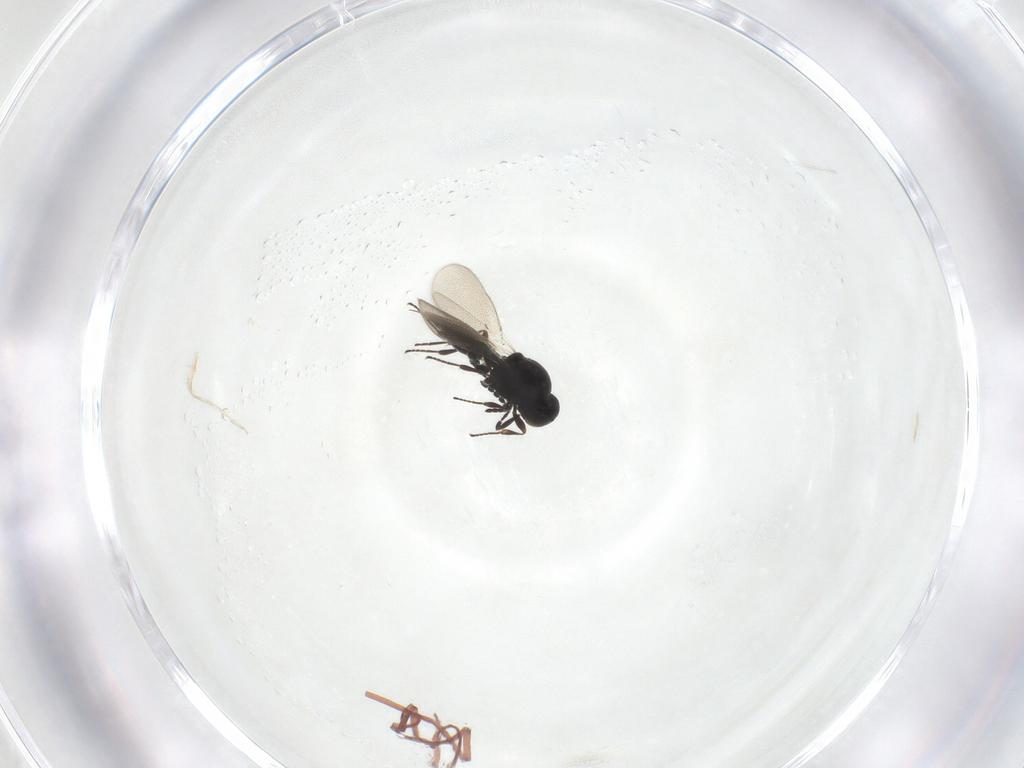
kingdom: Animalia
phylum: Arthropoda
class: Insecta
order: Hymenoptera
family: Platygastridae
